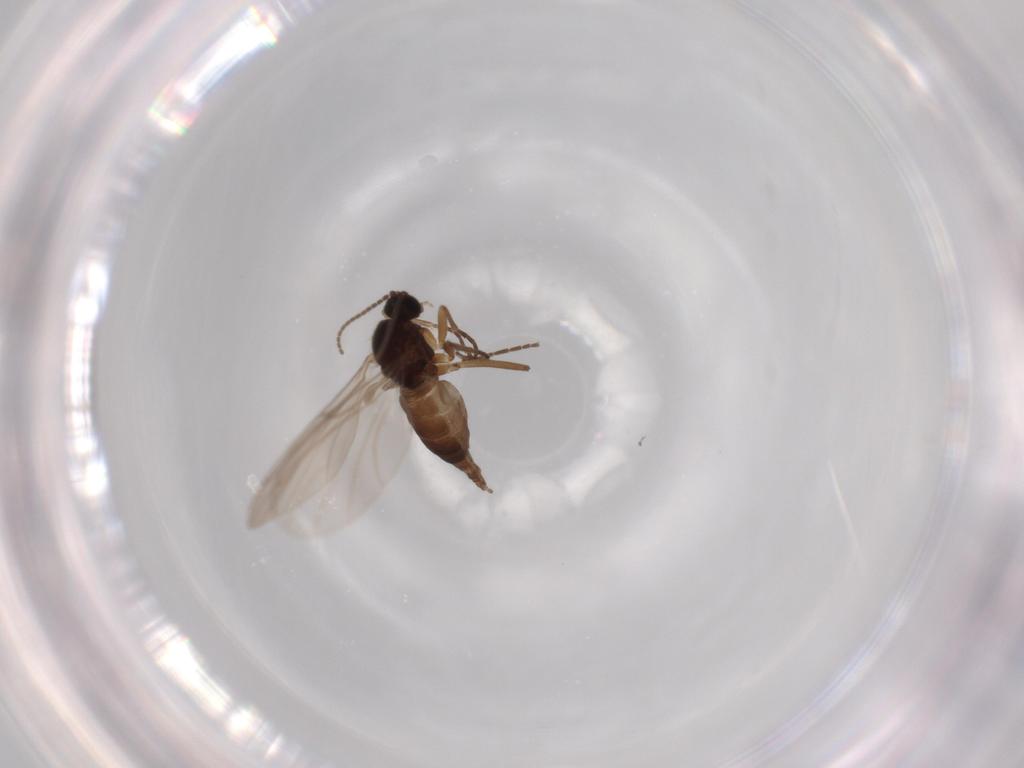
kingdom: Animalia
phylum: Arthropoda
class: Insecta
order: Diptera
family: Sciaridae
